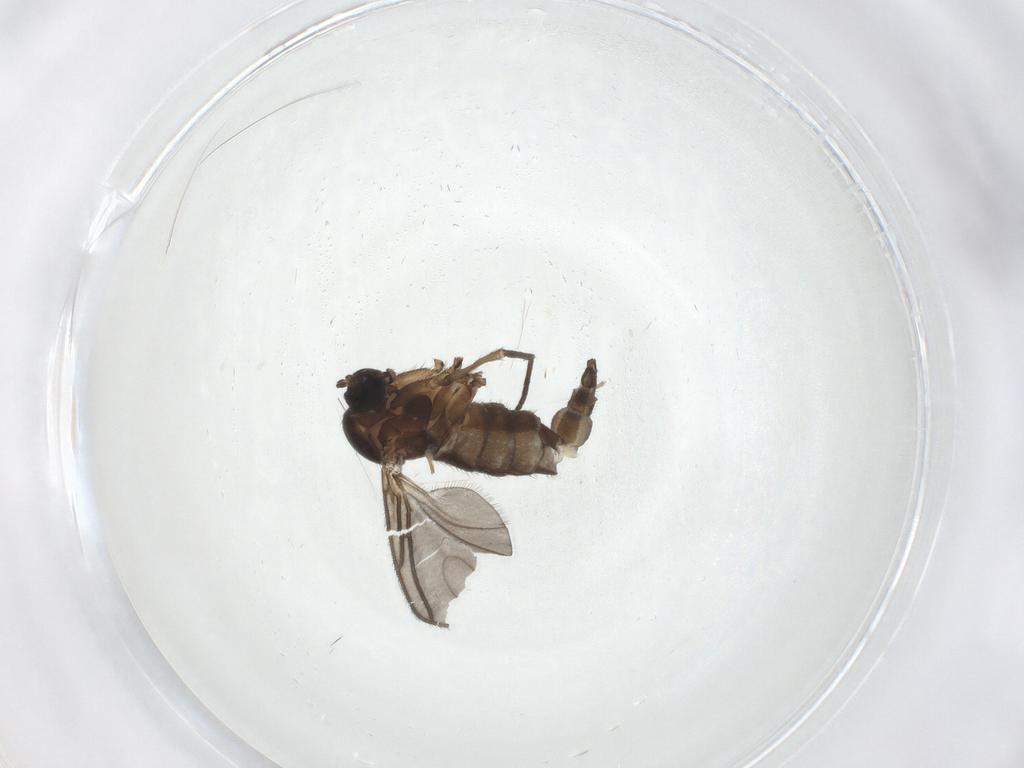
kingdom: Animalia
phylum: Arthropoda
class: Insecta
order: Diptera
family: Sciaridae
